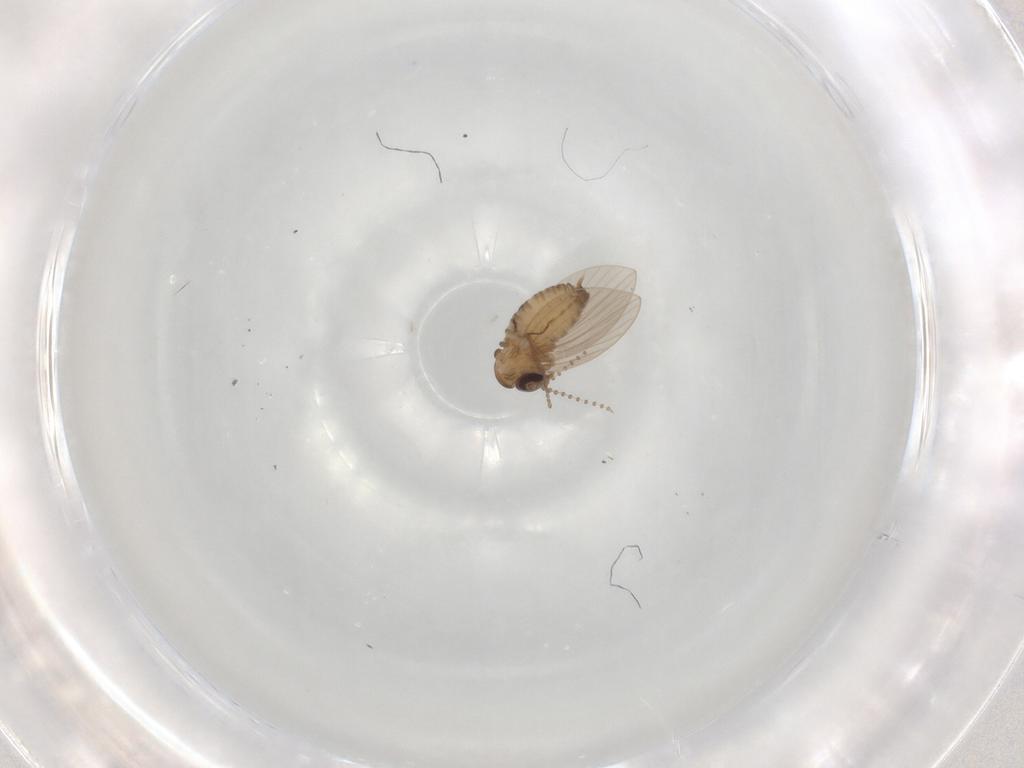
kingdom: Animalia
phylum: Arthropoda
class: Insecta
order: Diptera
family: Psychodidae
